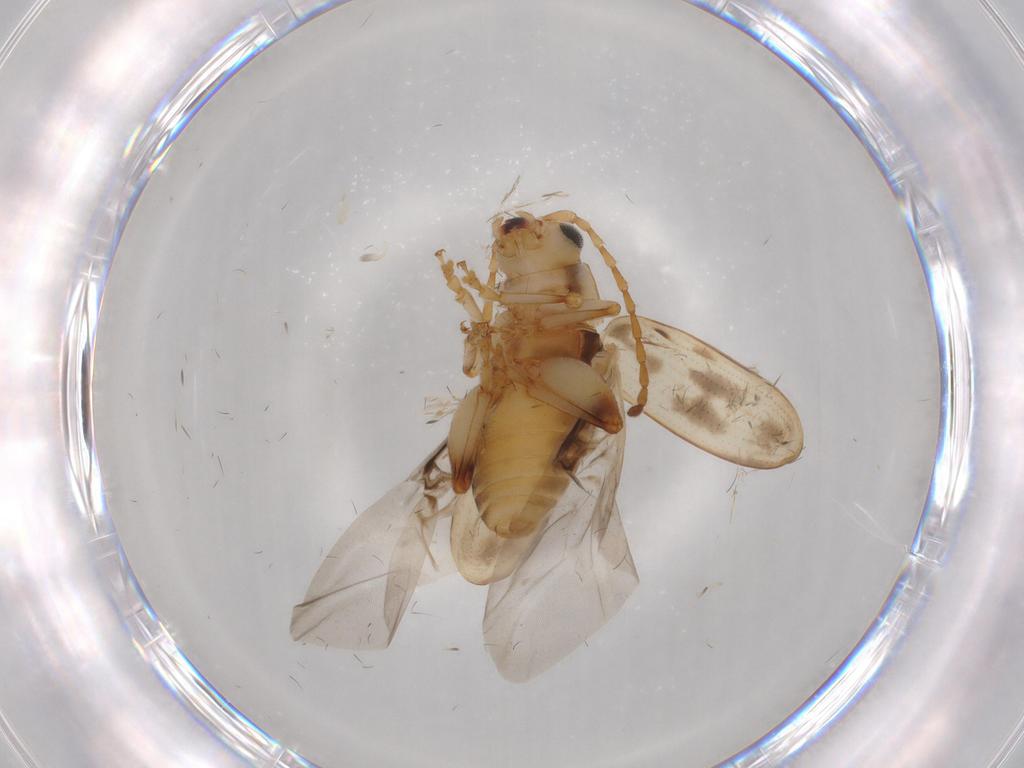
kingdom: Animalia
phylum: Arthropoda
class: Insecta
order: Coleoptera
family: Chrysomelidae
